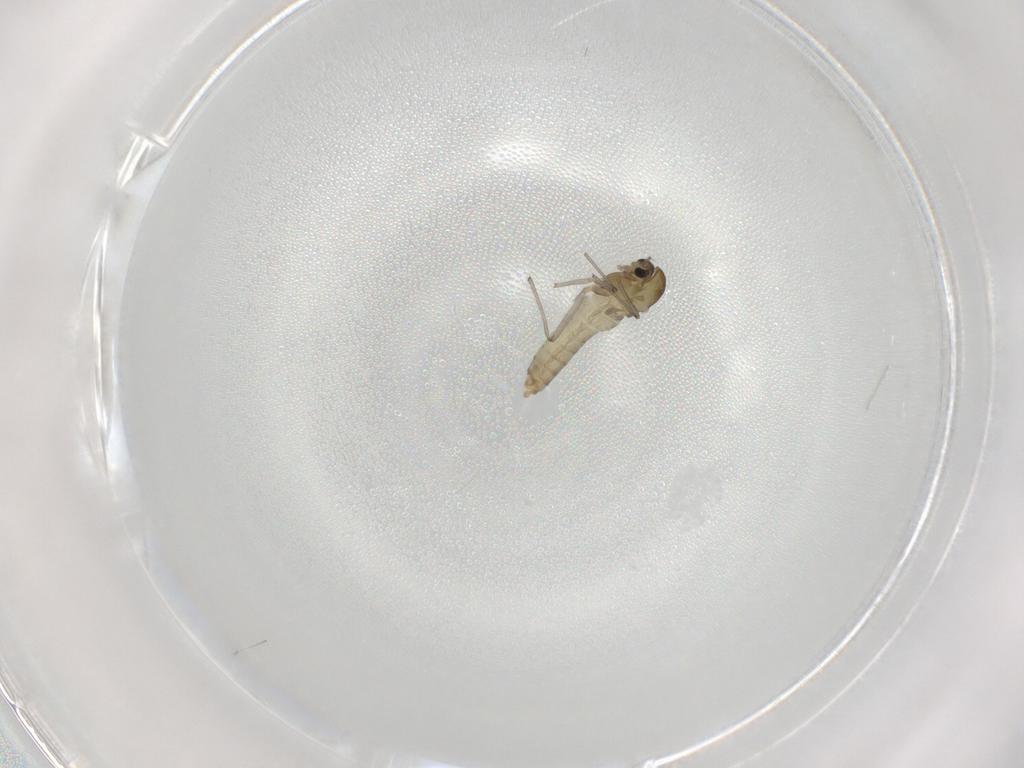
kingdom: Animalia
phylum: Arthropoda
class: Insecta
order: Diptera
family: Chironomidae
